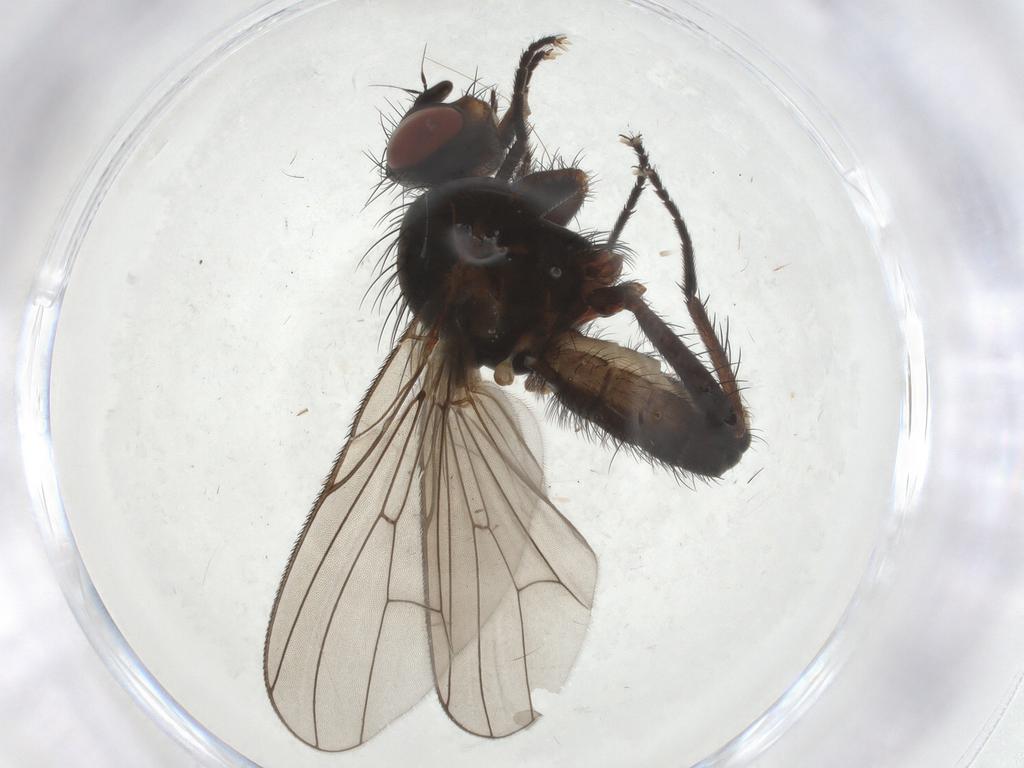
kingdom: Animalia
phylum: Arthropoda
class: Insecta
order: Diptera
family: Anthomyiidae
